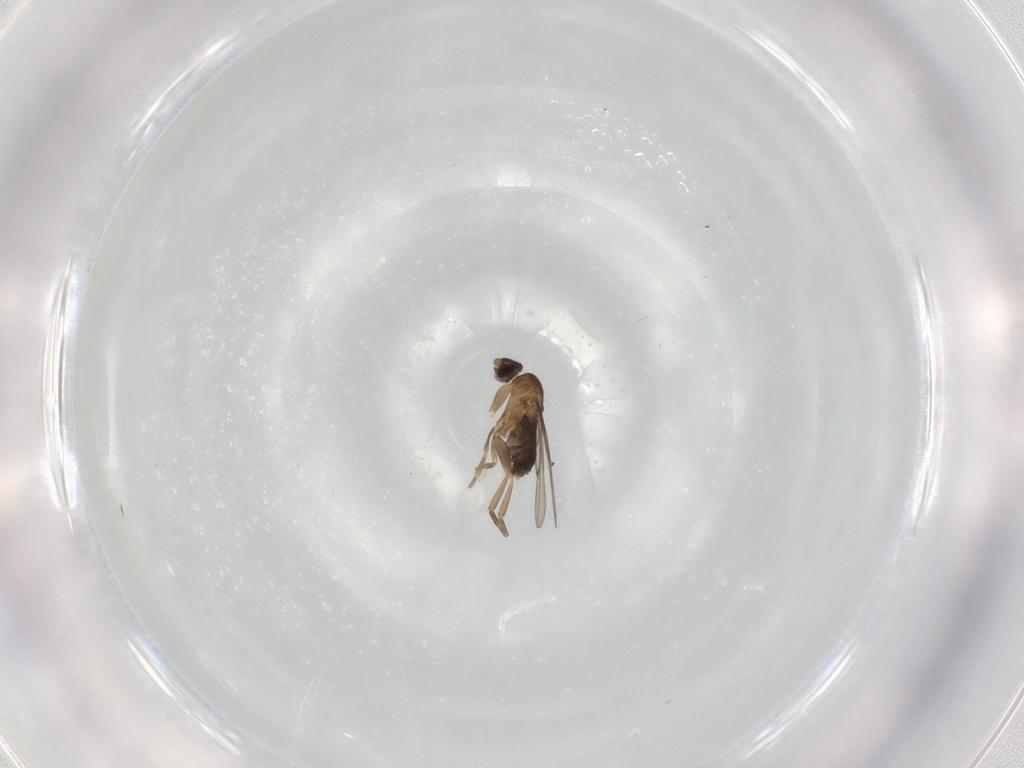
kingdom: Animalia
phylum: Arthropoda
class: Insecta
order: Diptera
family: Phoridae
